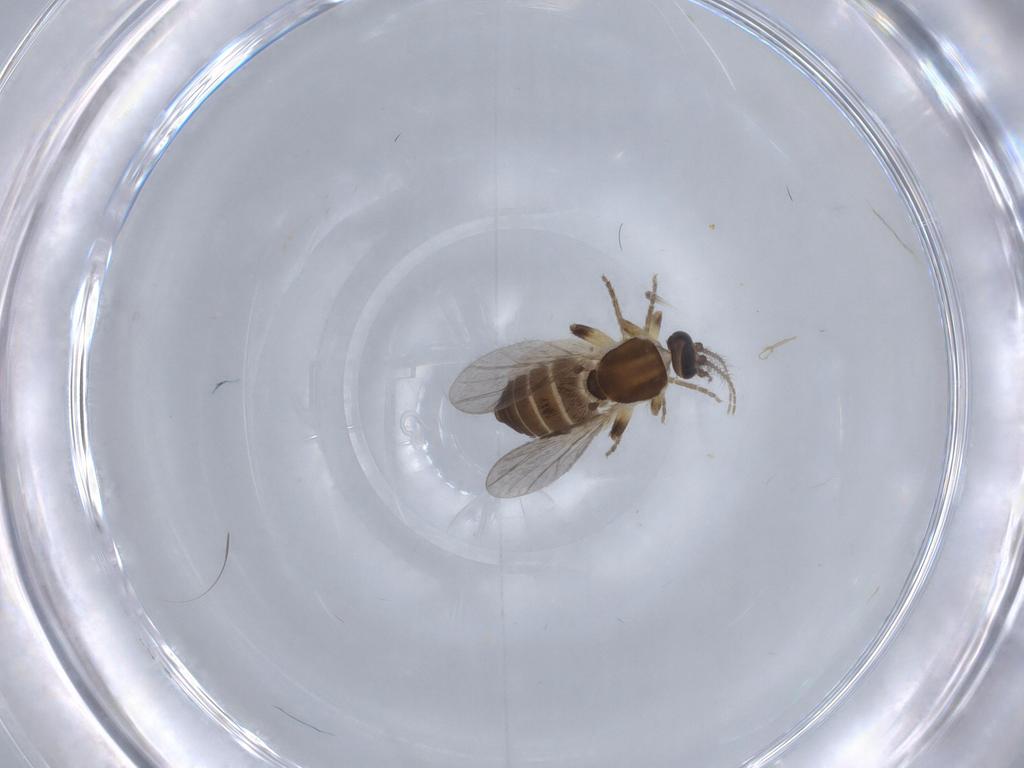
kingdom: Animalia
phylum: Arthropoda
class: Insecta
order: Diptera
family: Ceratopogonidae
